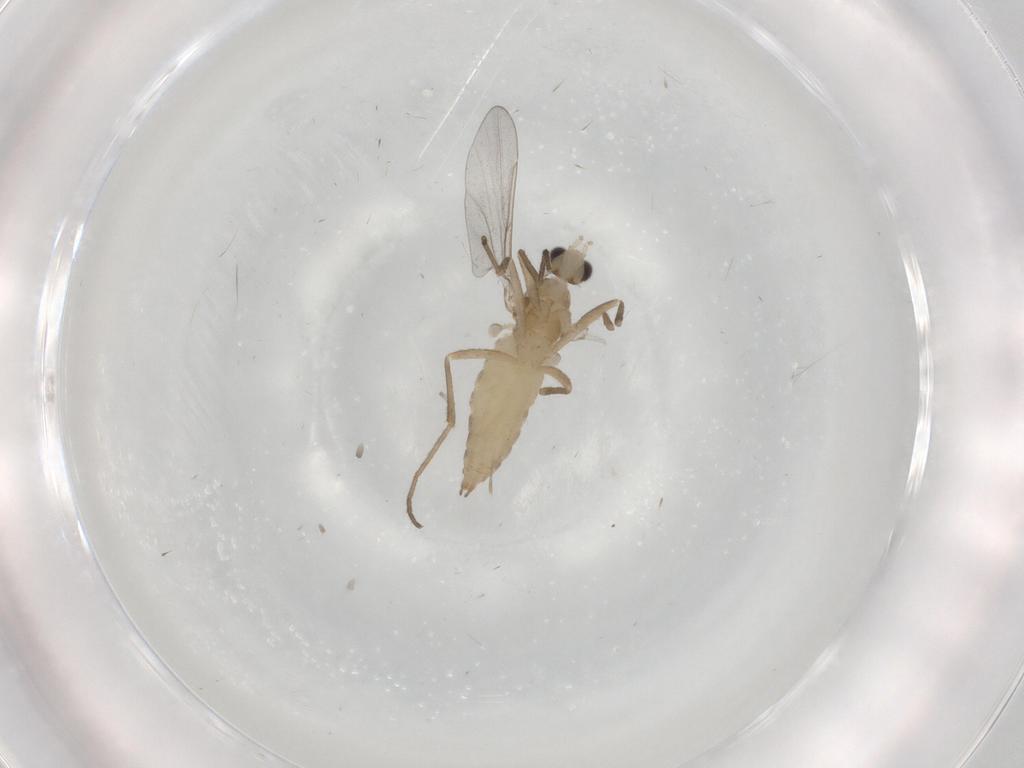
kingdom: Animalia
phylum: Arthropoda
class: Insecta
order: Diptera
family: Cecidomyiidae
